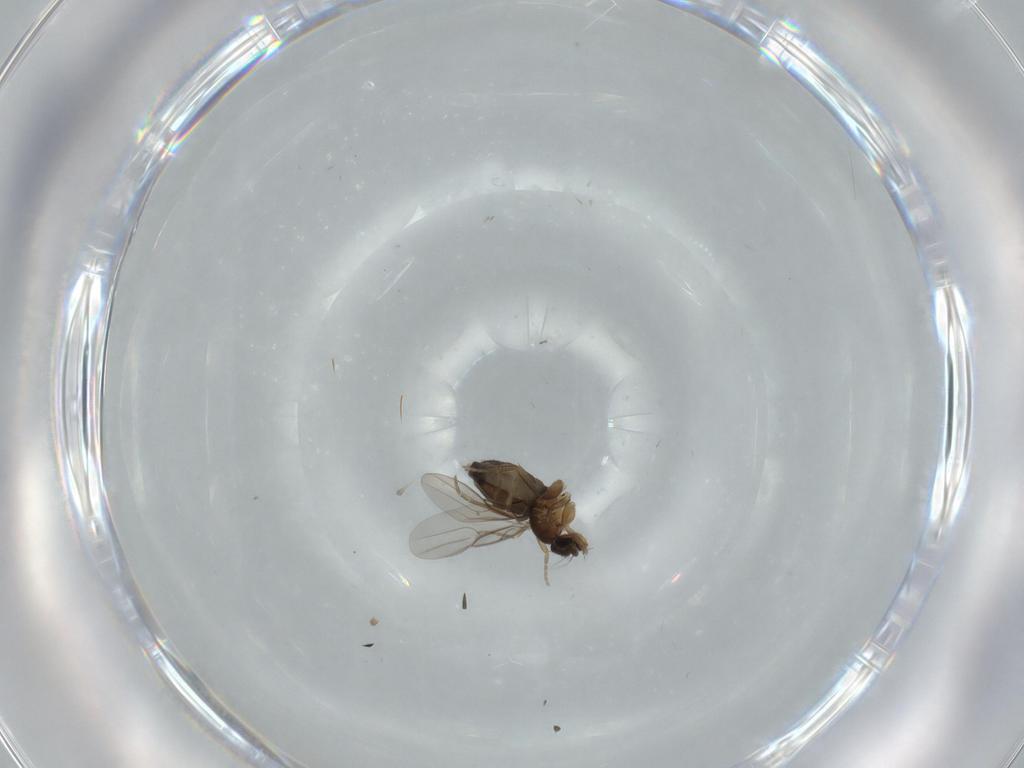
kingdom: Animalia
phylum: Arthropoda
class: Insecta
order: Diptera
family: Phoridae
